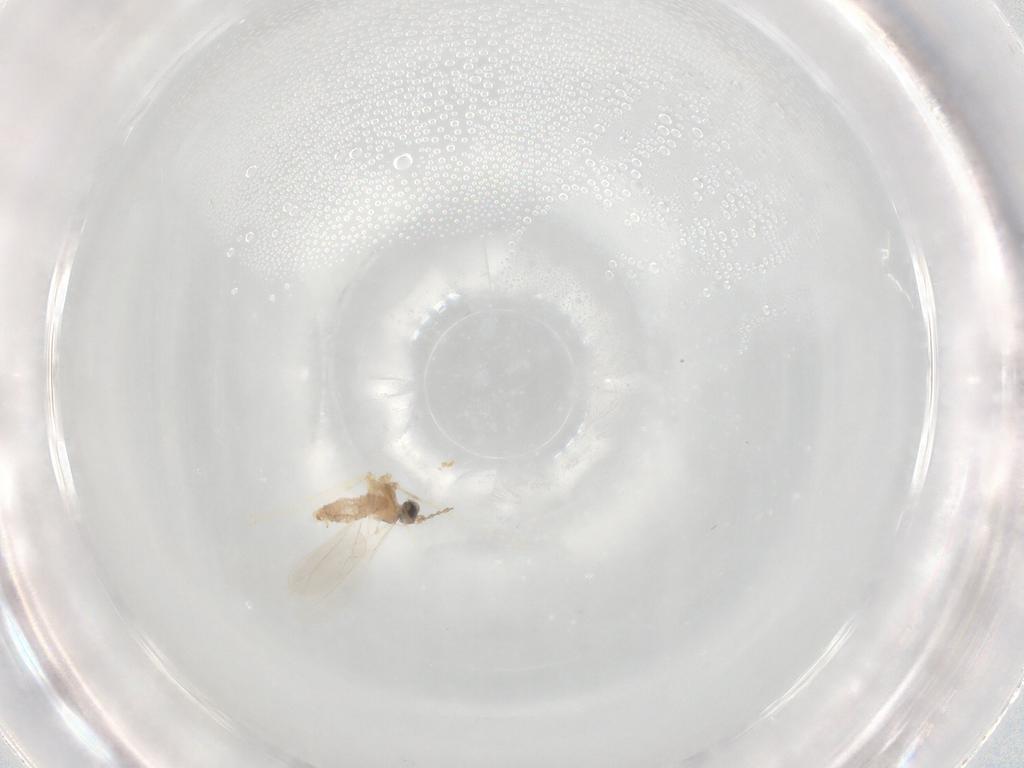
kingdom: Animalia
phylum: Arthropoda
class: Insecta
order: Diptera
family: Cecidomyiidae
